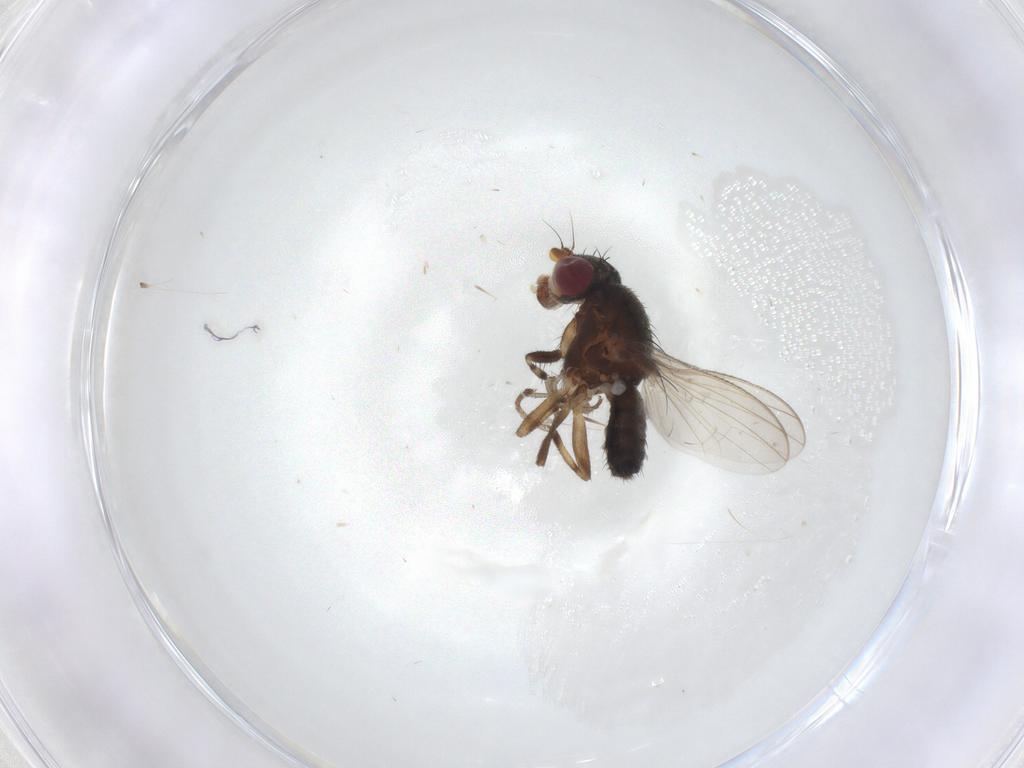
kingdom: Animalia
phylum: Arthropoda
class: Insecta
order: Diptera
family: Heleomyzidae
